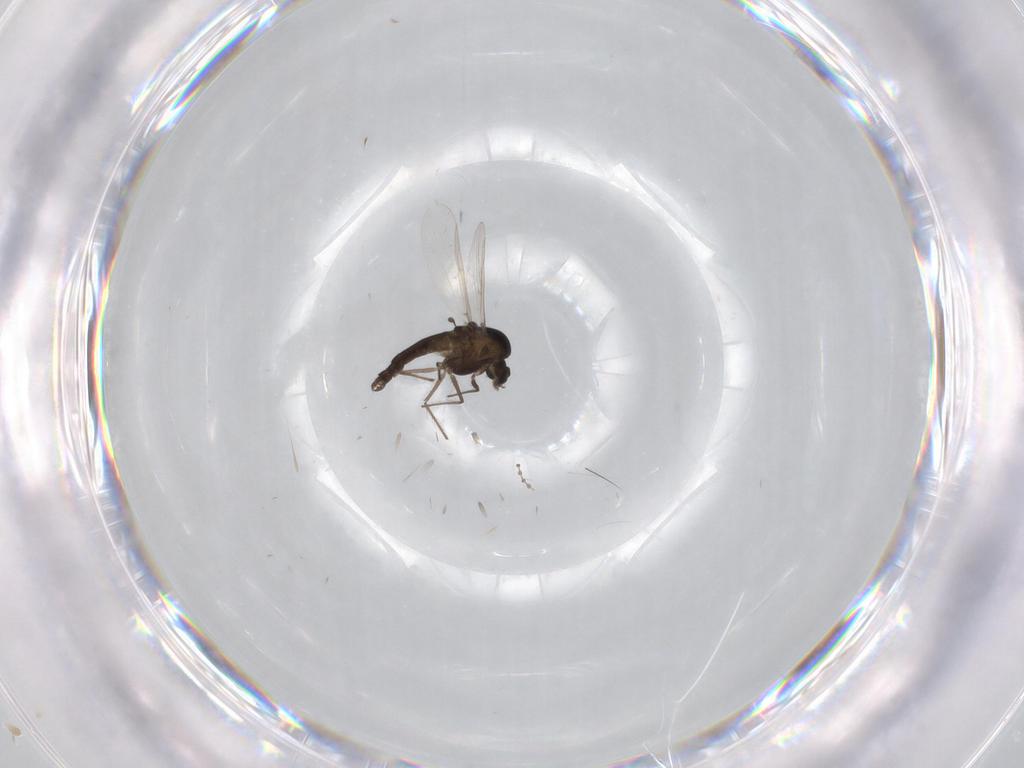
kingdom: Animalia
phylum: Arthropoda
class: Insecta
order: Diptera
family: Chironomidae
